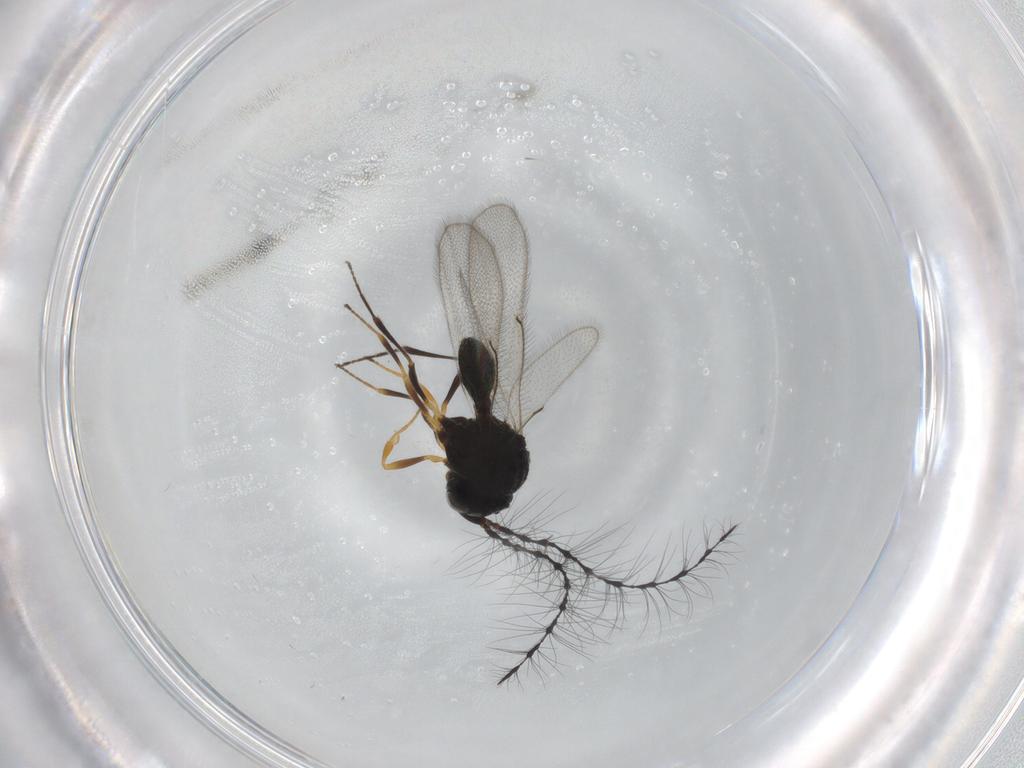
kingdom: Animalia
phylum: Arthropoda
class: Insecta
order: Hymenoptera
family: Scelionidae
